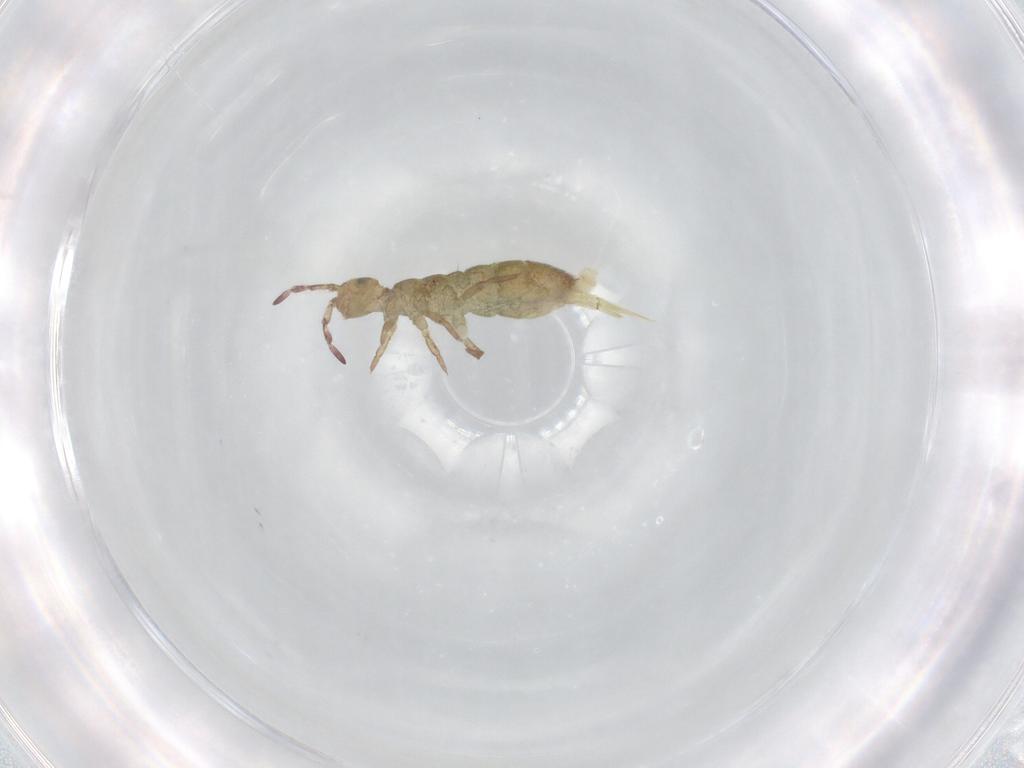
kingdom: Animalia
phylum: Arthropoda
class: Collembola
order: Entomobryomorpha
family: Isotomidae
